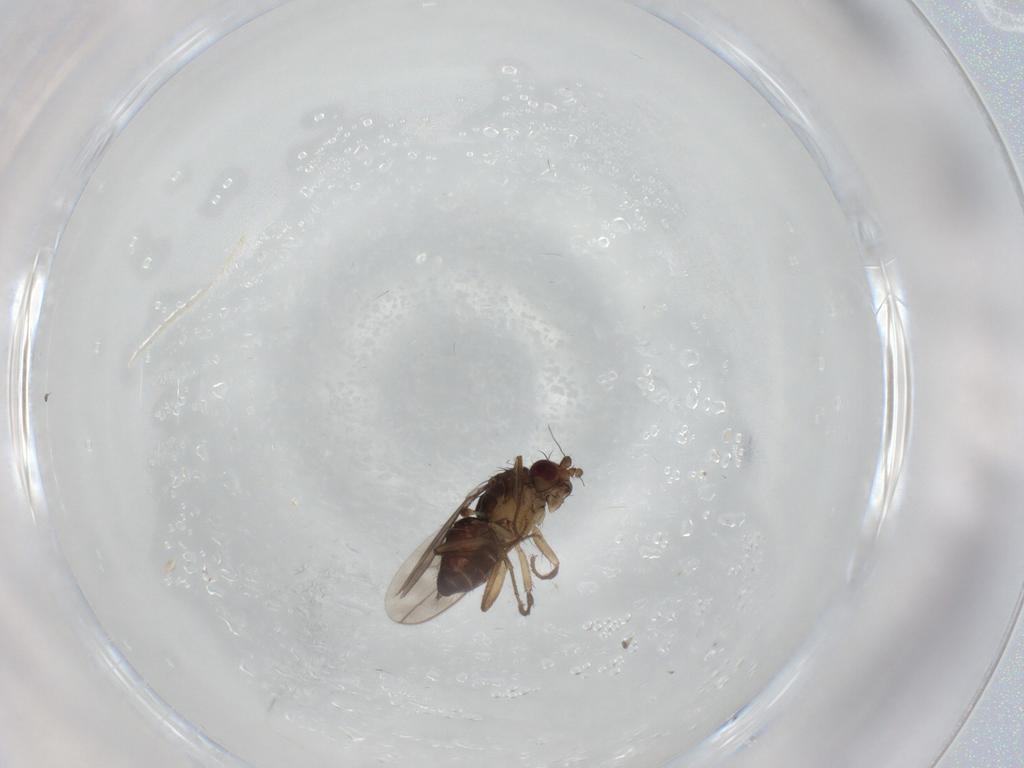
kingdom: Animalia
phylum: Arthropoda
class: Insecta
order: Diptera
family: Sphaeroceridae
